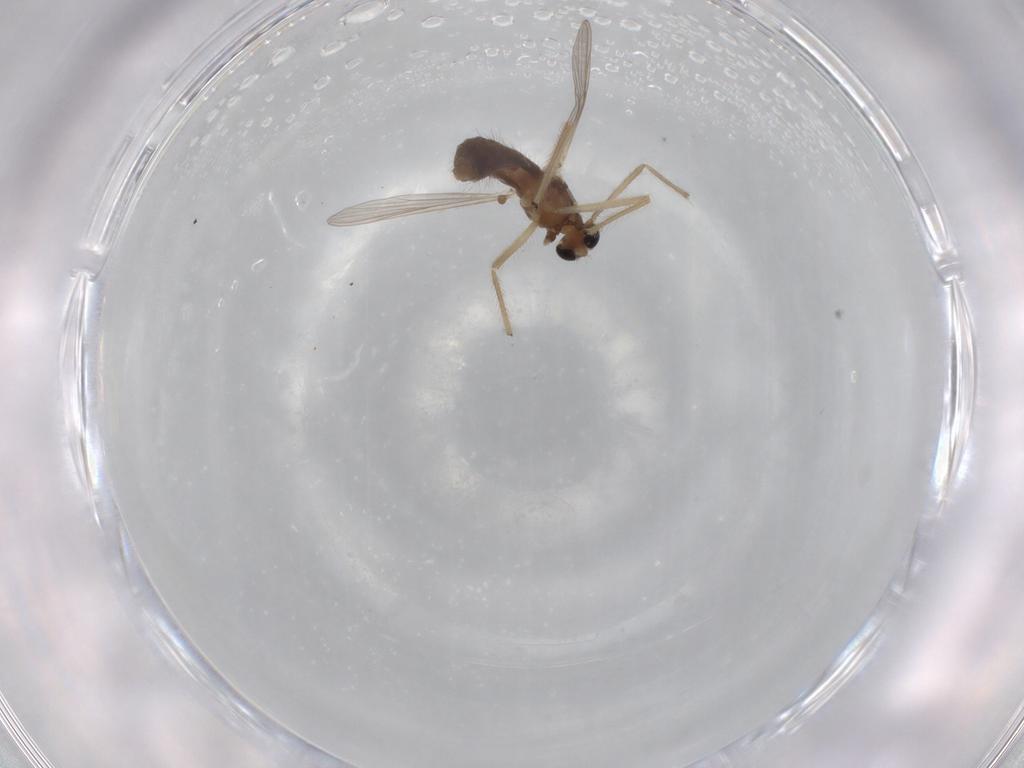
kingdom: Animalia
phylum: Arthropoda
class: Insecta
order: Diptera
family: Chironomidae
